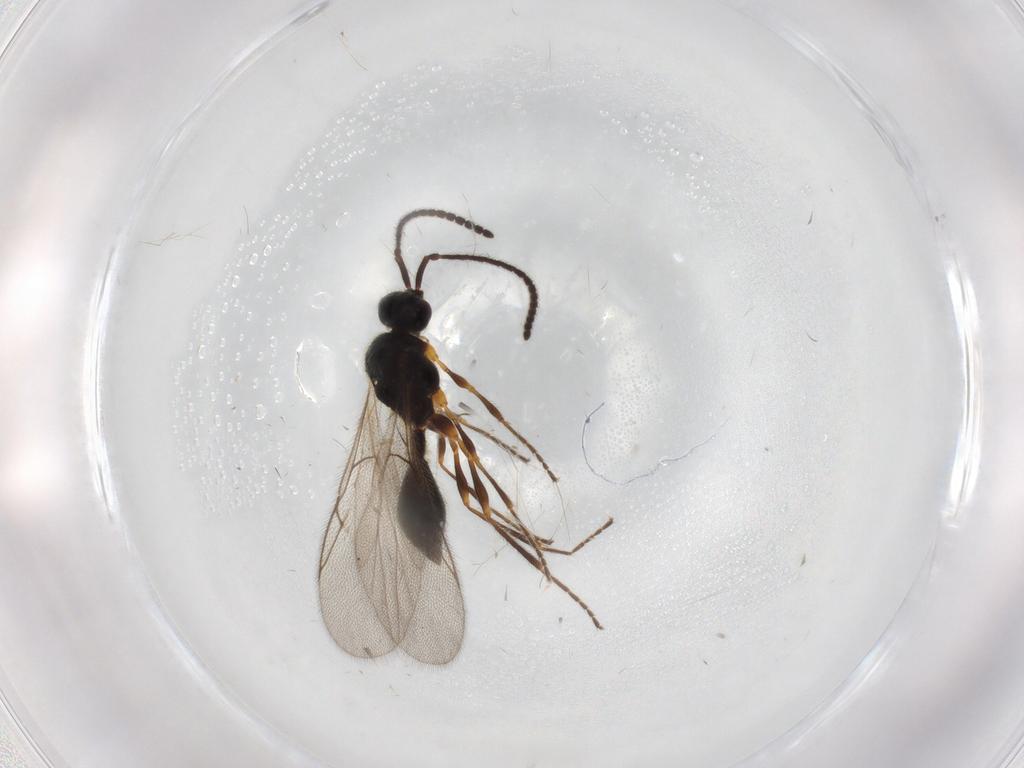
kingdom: Animalia
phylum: Arthropoda
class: Insecta
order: Hymenoptera
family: Diapriidae
